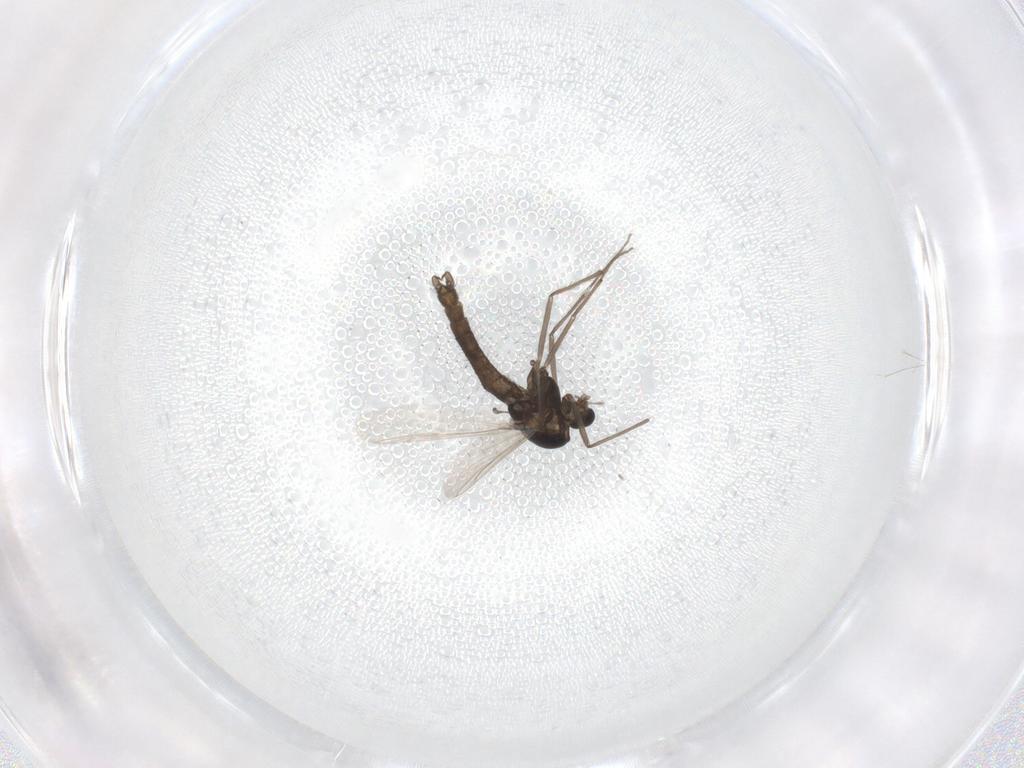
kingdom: Animalia
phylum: Arthropoda
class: Insecta
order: Diptera
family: Chironomidae
